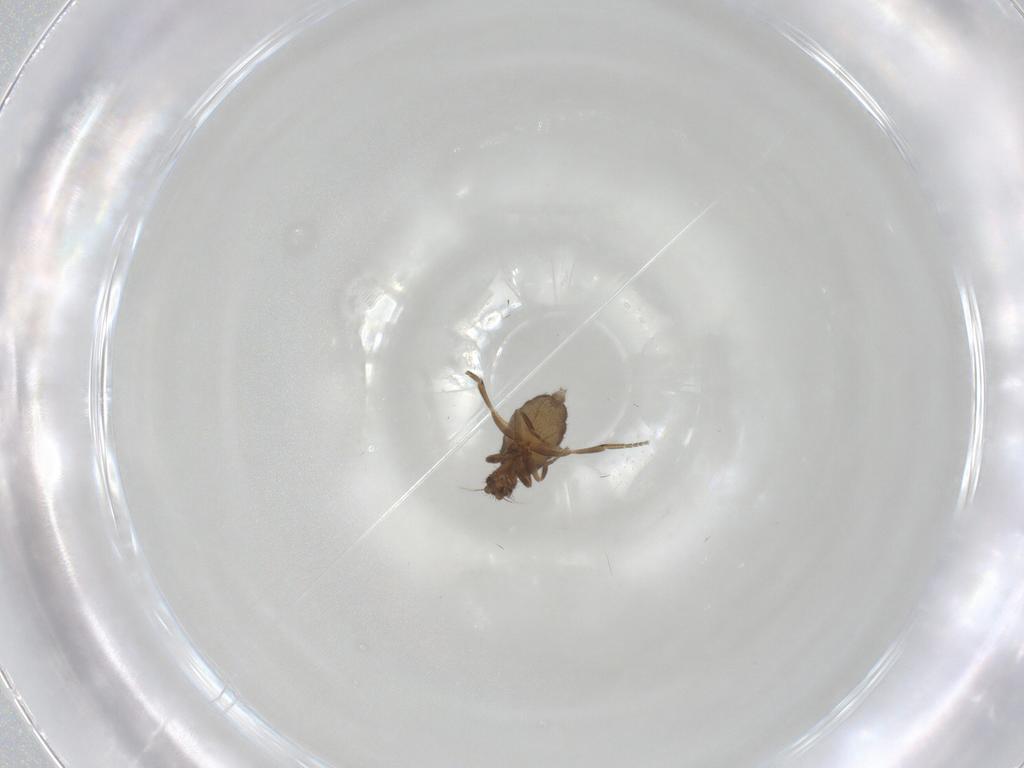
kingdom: Animalia
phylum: Arthropoda
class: Insecta
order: Diptera
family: Phoridae
